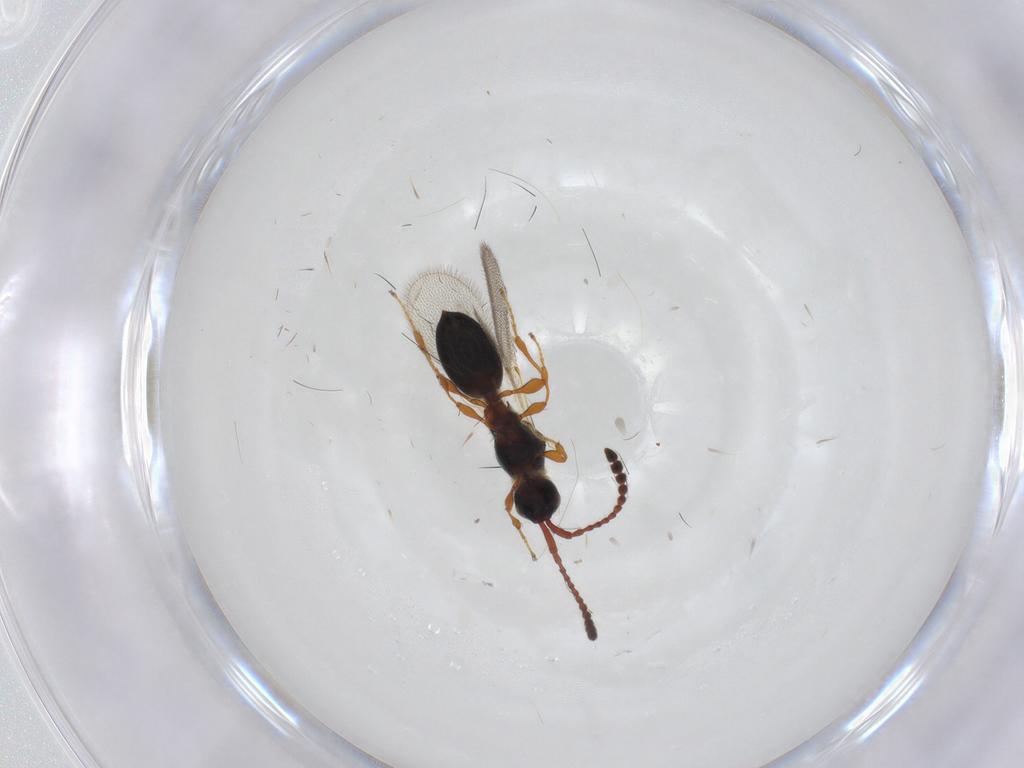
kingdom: Animalia
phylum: Arthropoda
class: Insecta
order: Hymenoptera
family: Diapriidae
